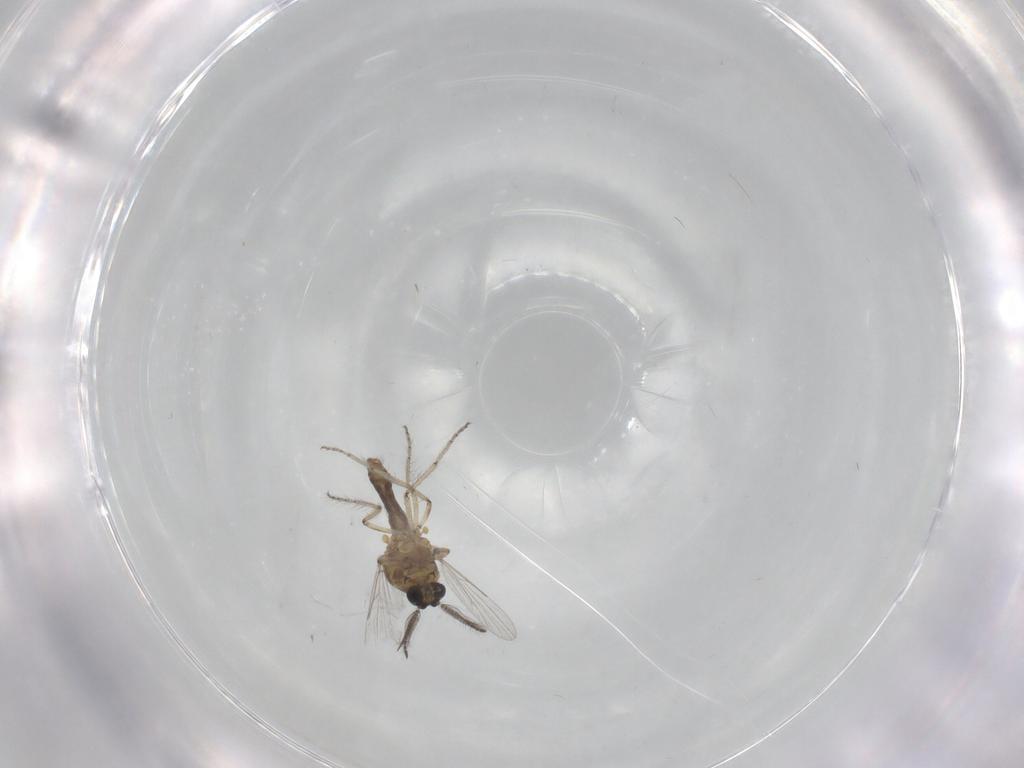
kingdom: Animalia
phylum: Arthropoda
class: Insecta
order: Diptera
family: Ceratopogonidae
